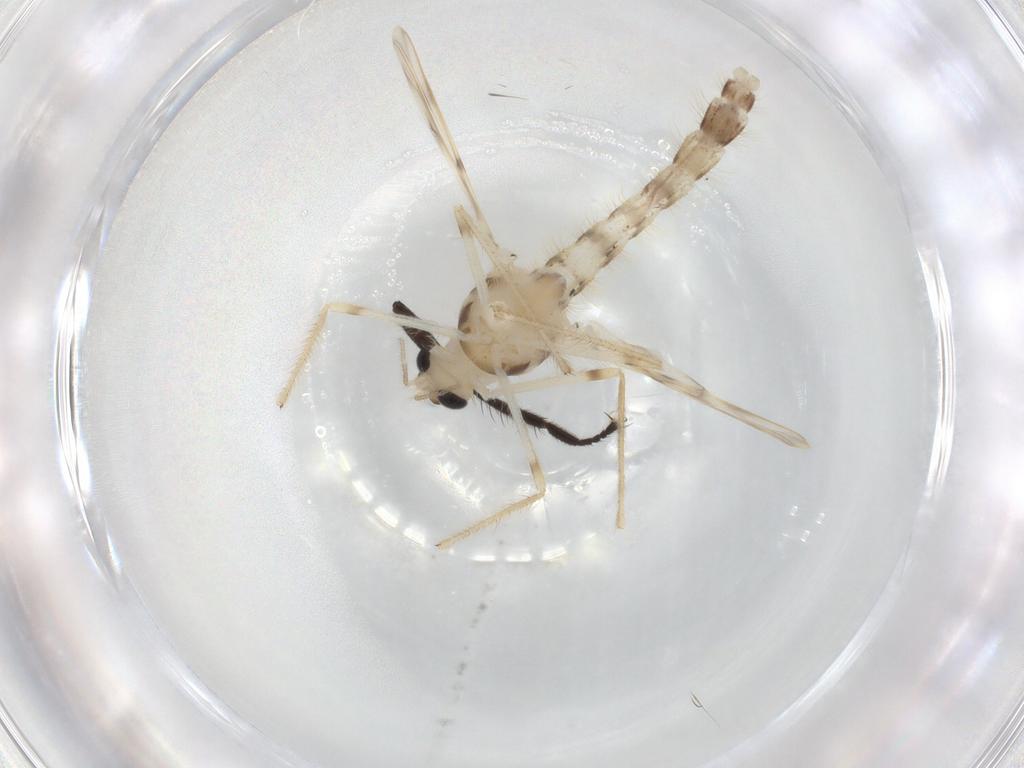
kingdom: Animalia
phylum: Arthropoda
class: Insecta
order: Diptera
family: Chironomidae
